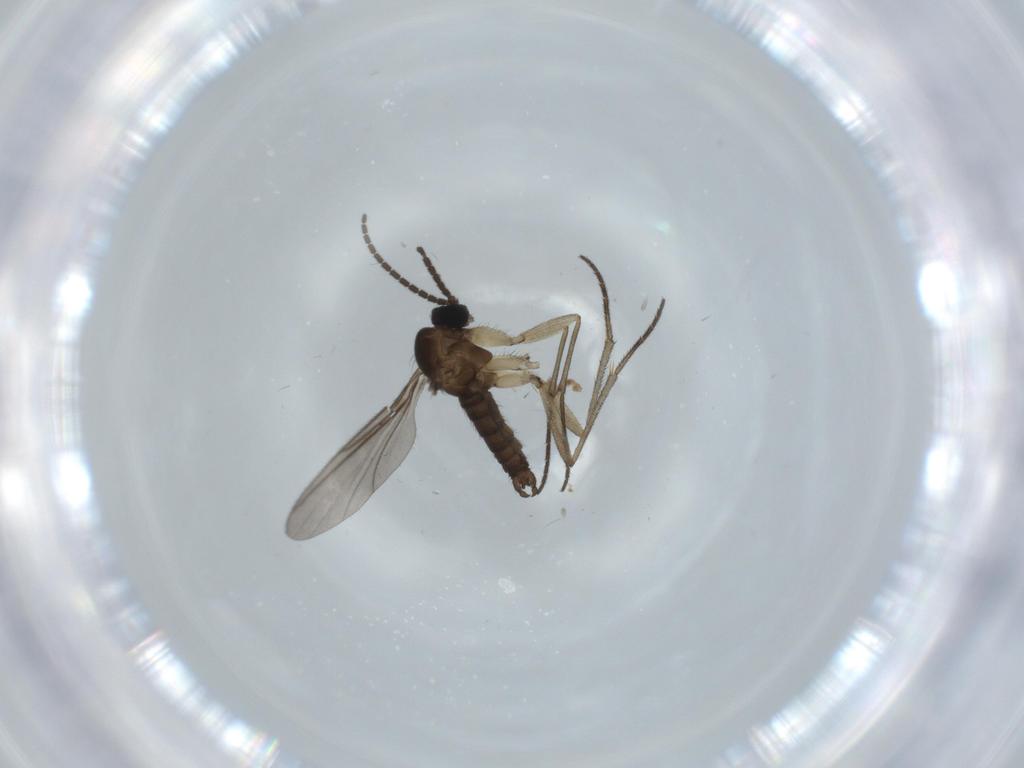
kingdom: Animalia
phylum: Arthropoda
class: Insecta
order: Diptera
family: Sciaridae
